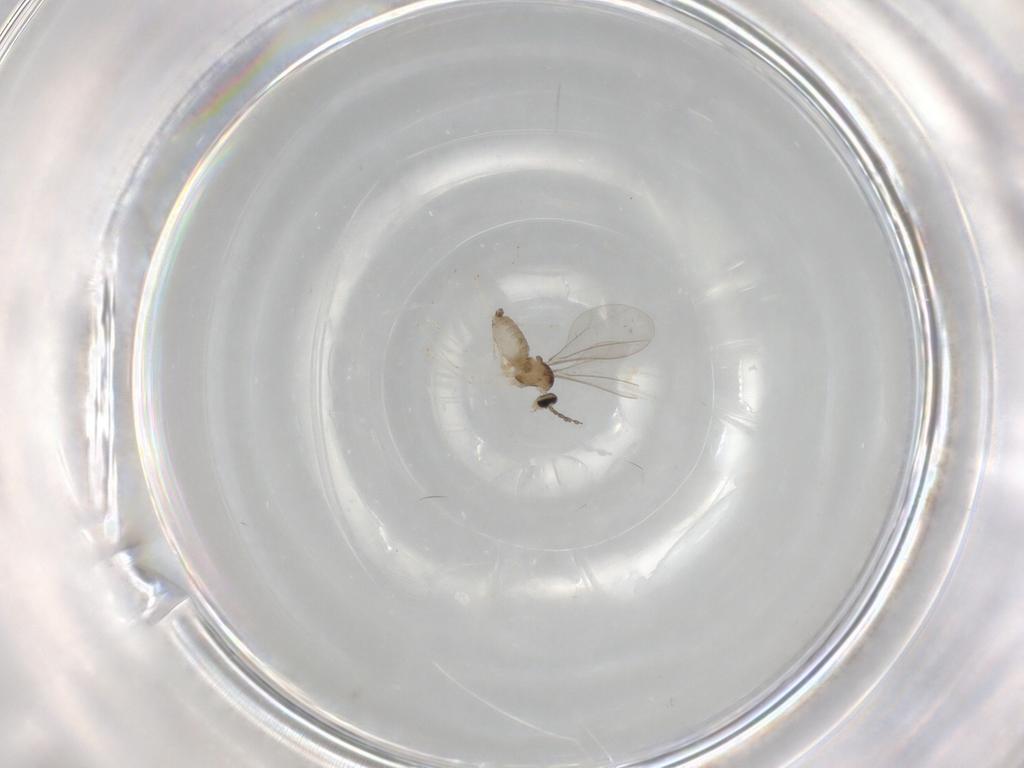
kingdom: Animalia
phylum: Arthropoda
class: Insecta
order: Diptera
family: Cecidomyiidae
